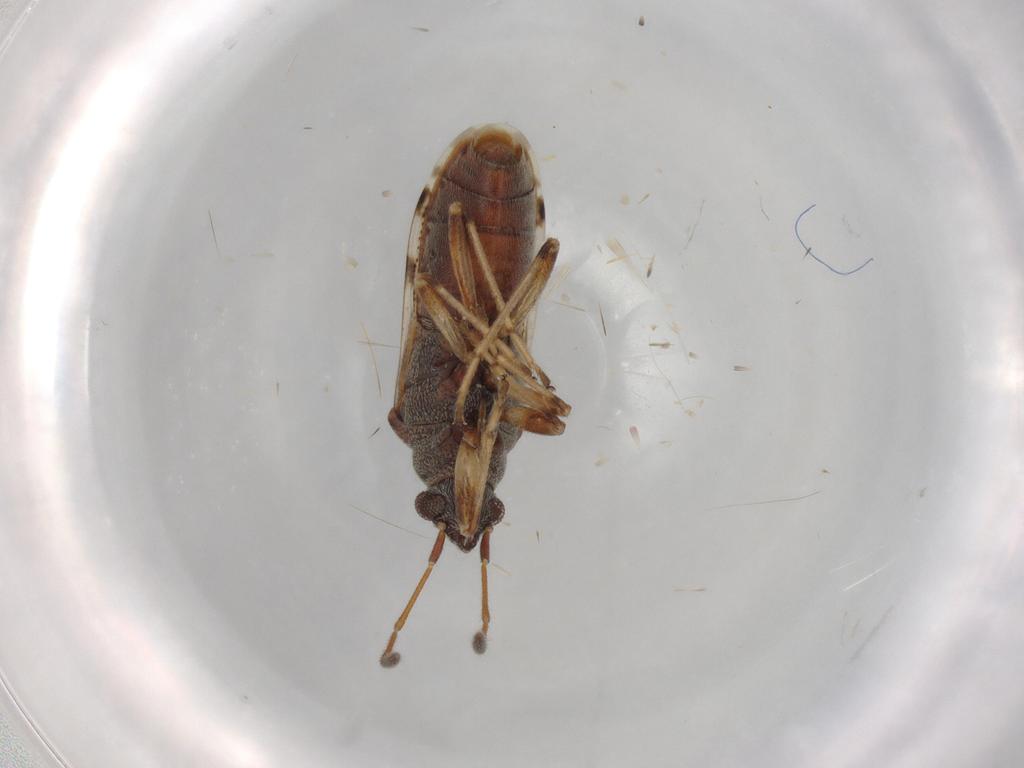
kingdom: Animalia
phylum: Arthropoda
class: Insecta
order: Hemiptera
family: Rhyparochromidae
